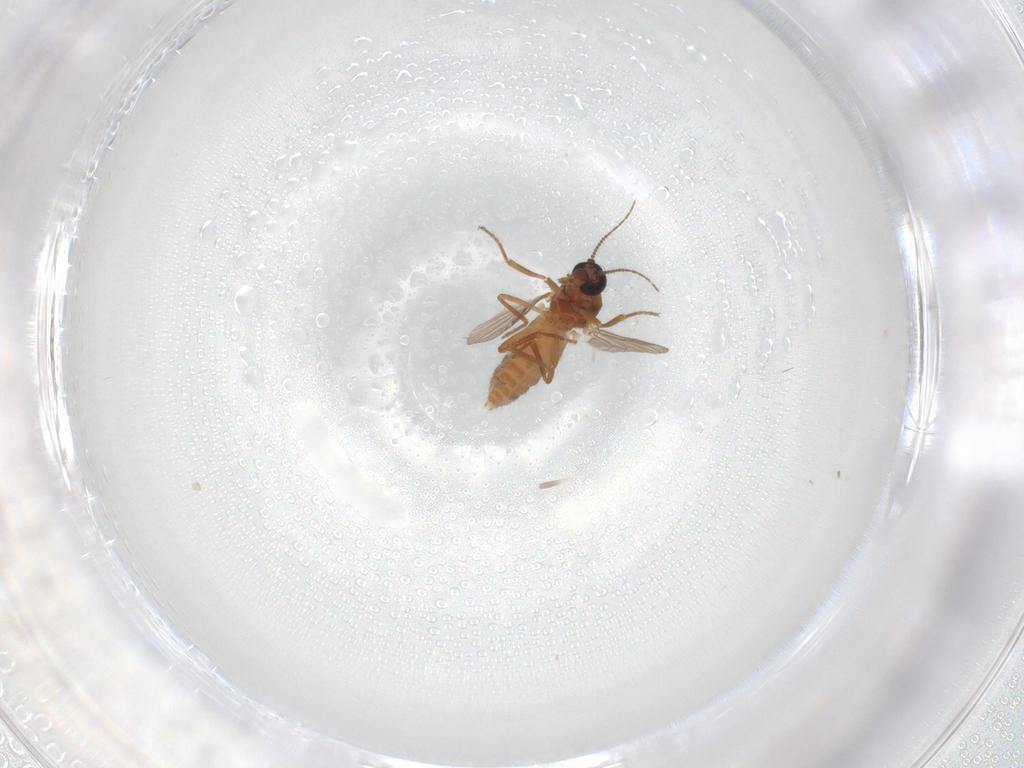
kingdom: Animalia
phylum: Arthropoda
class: Insecta
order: Diptera
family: Ceratopogonidae
